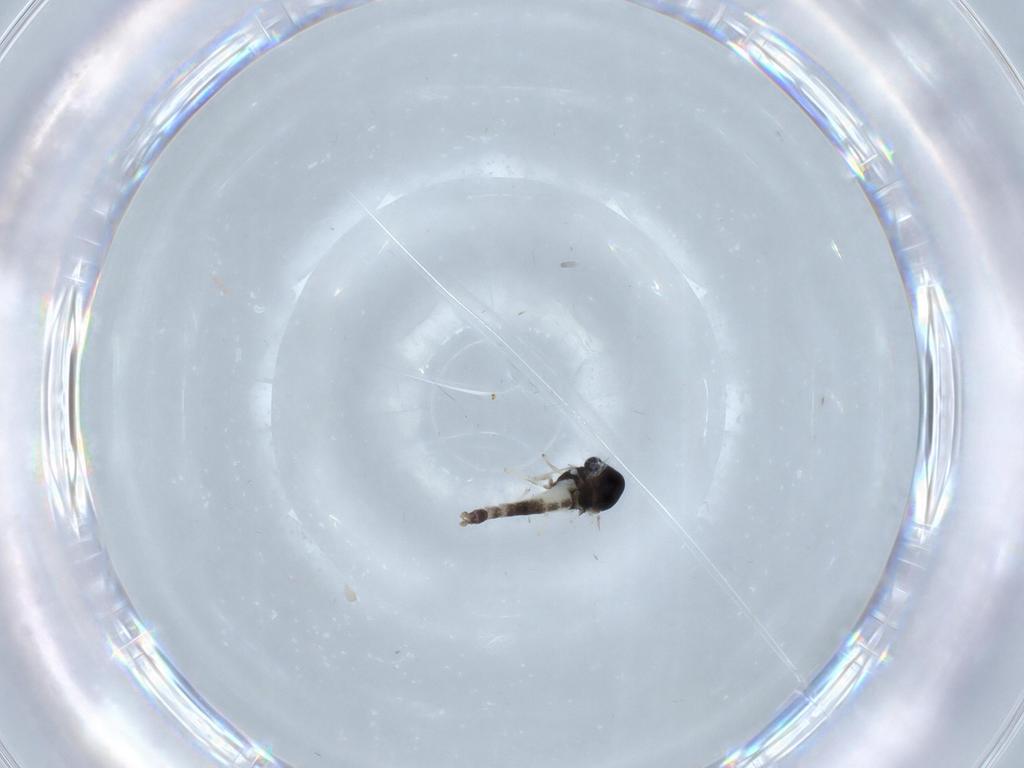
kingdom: Animalia
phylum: Arthropoda
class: Insecta
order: Diptera
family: Chironomidae
